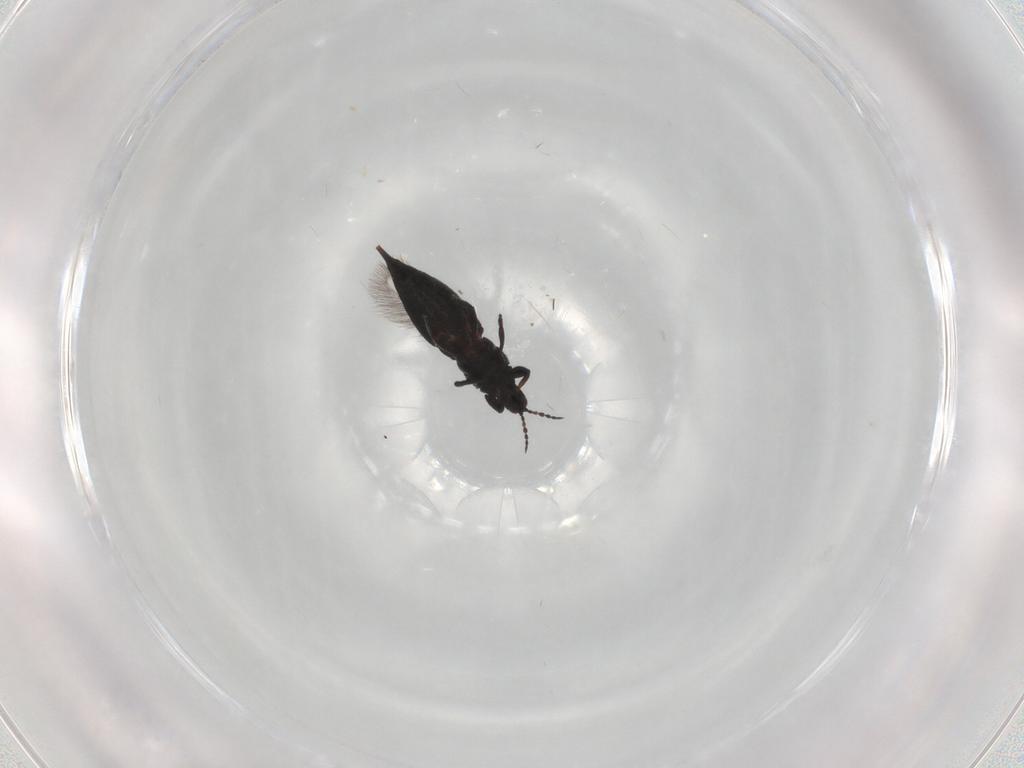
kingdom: Animalia
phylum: Arthropoda
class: Insecta
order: Thysanoptera
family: Phlaeothripidae
